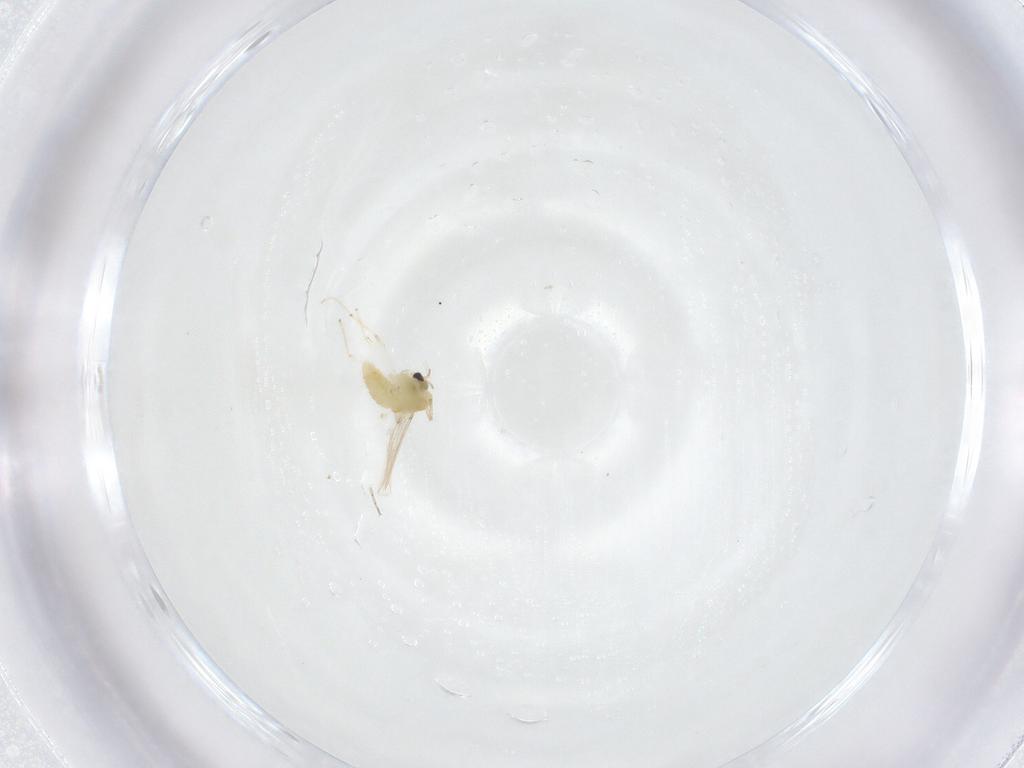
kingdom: Animalia
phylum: Arthropoda
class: Insecta
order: Diptera
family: Ceratopogonidae
